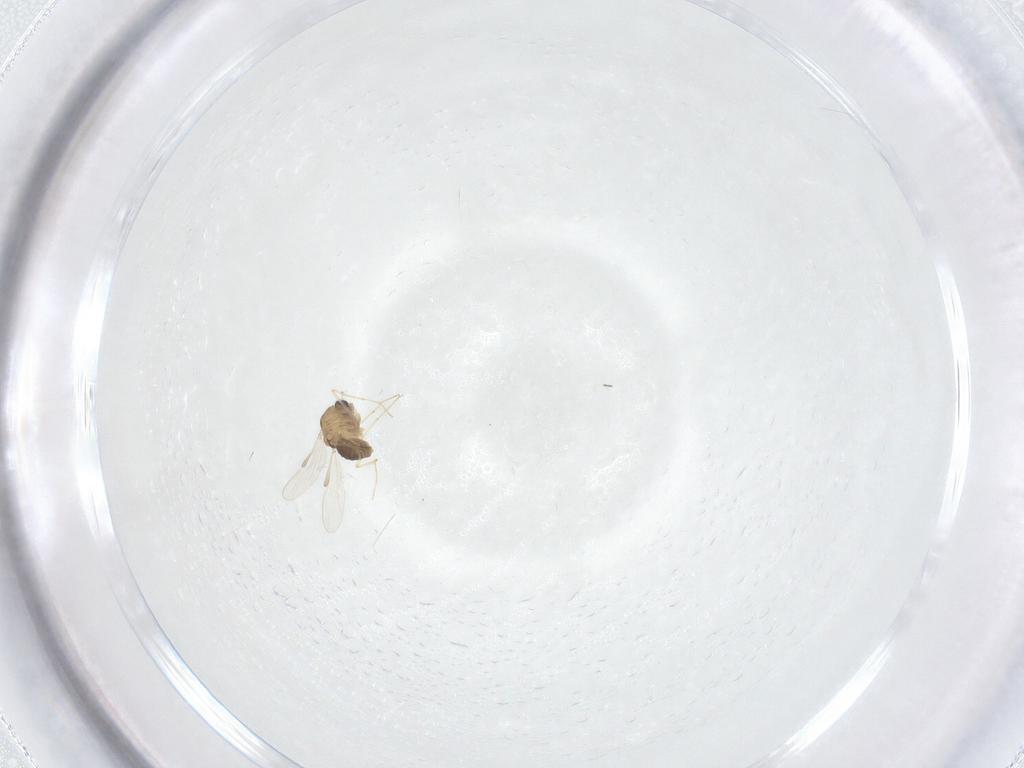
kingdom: Animalia
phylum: Arthropoda
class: Insecta
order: Diptera
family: Chironomidae
